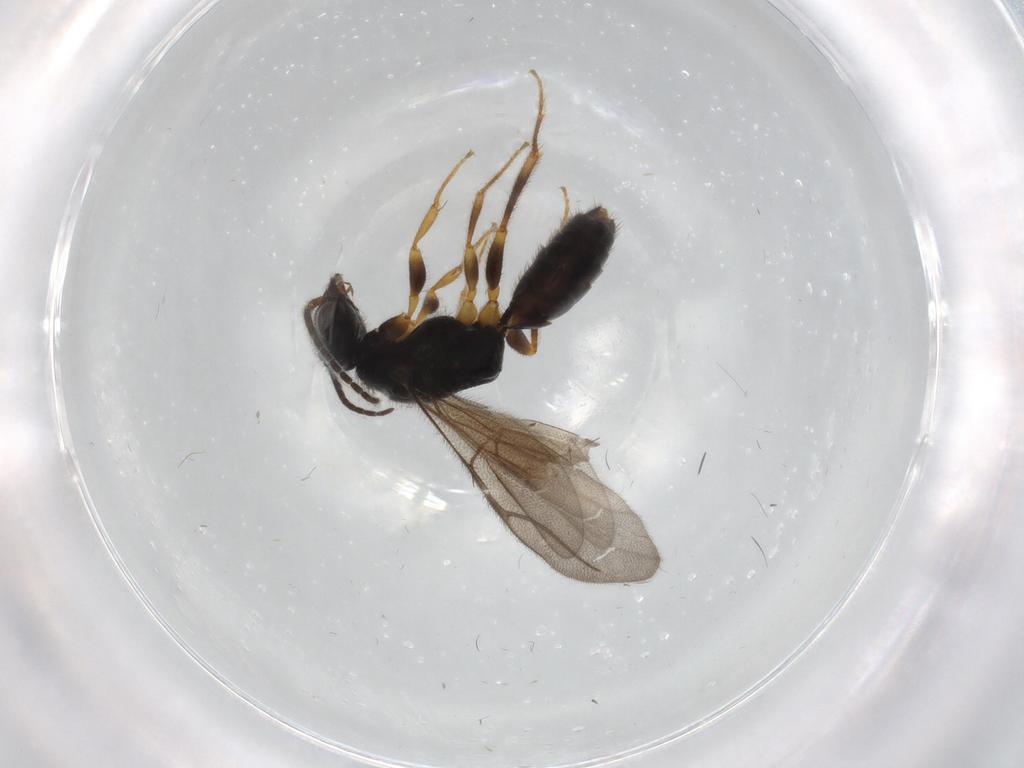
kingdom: Animalia
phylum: Arthropoda
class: Insecta
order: Hymenoptera
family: Bethylidae
